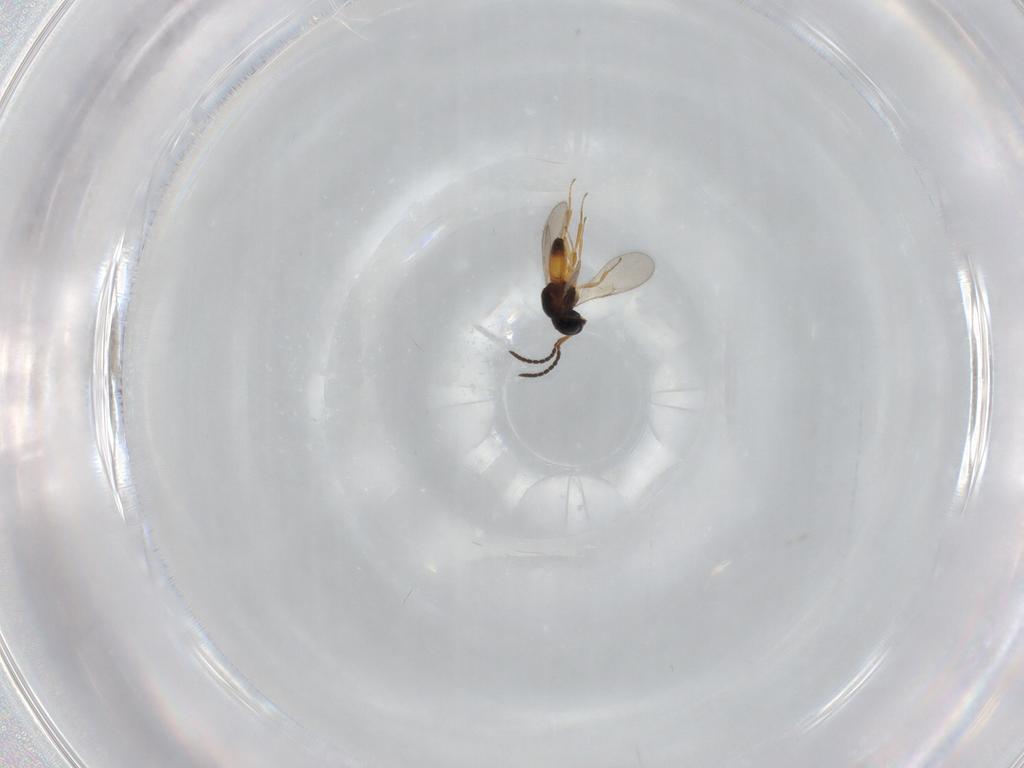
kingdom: Animalia
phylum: Arthropoda
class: Insecta
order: Hymenoptera
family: Scelionidae
